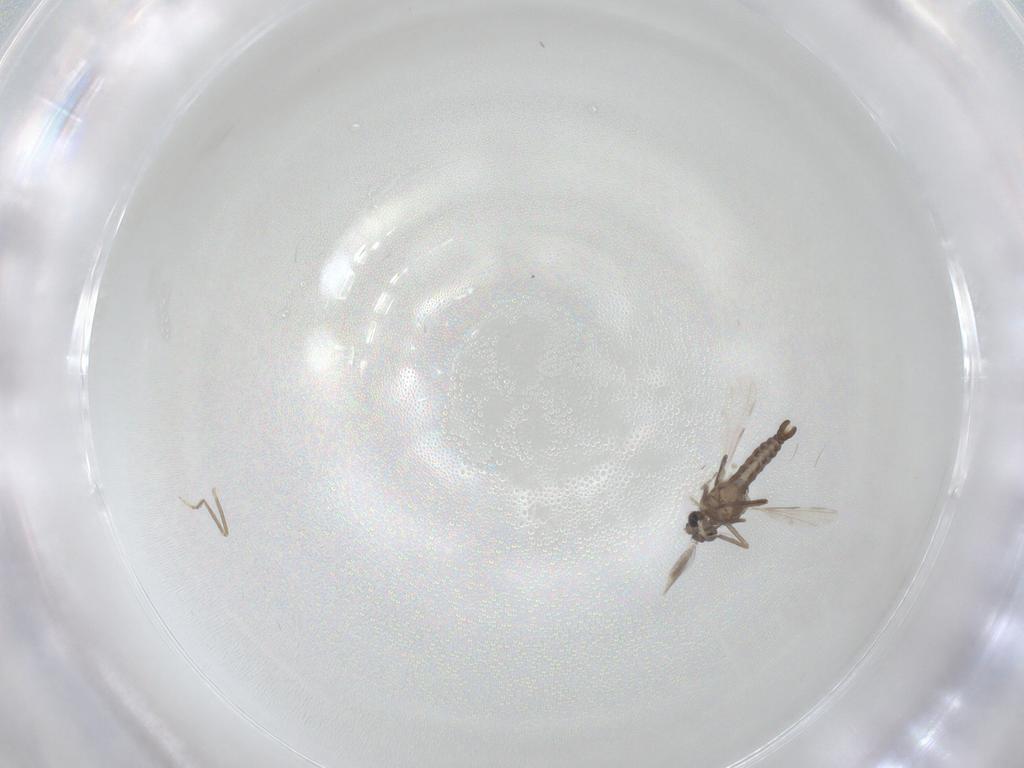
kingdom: Animalia
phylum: Arthropoda
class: Insecta
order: Diptera
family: Ceratopogonidae
